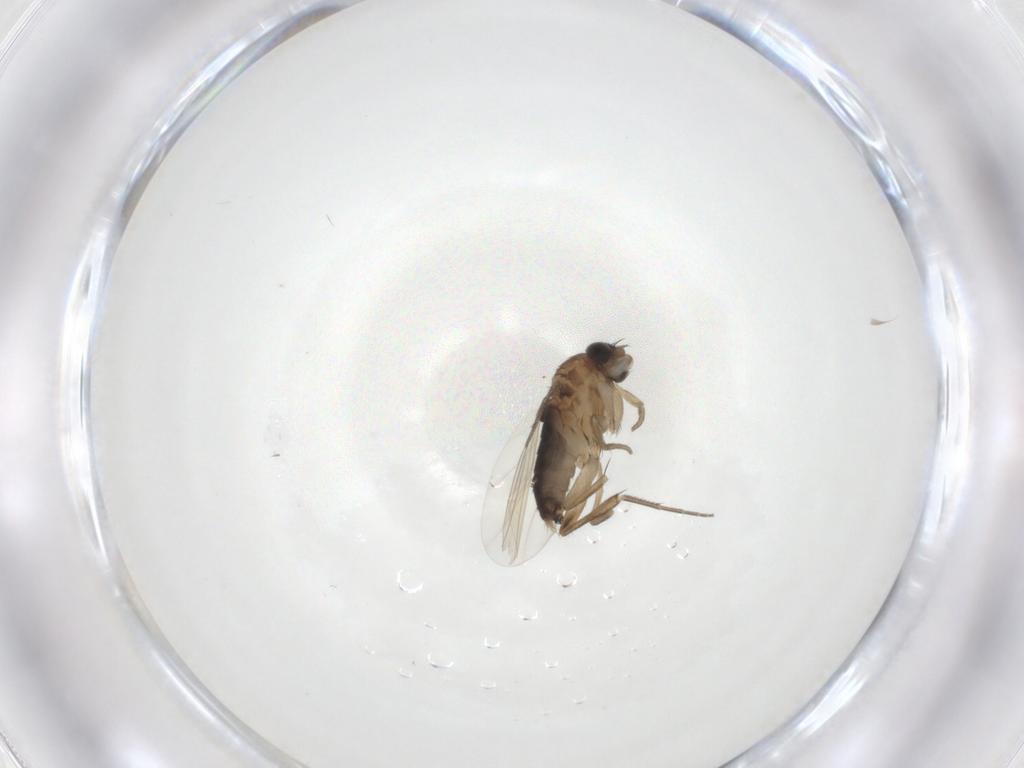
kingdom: Animalia
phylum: Arthropoda
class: Insecta
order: Diptera
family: Phoridae
